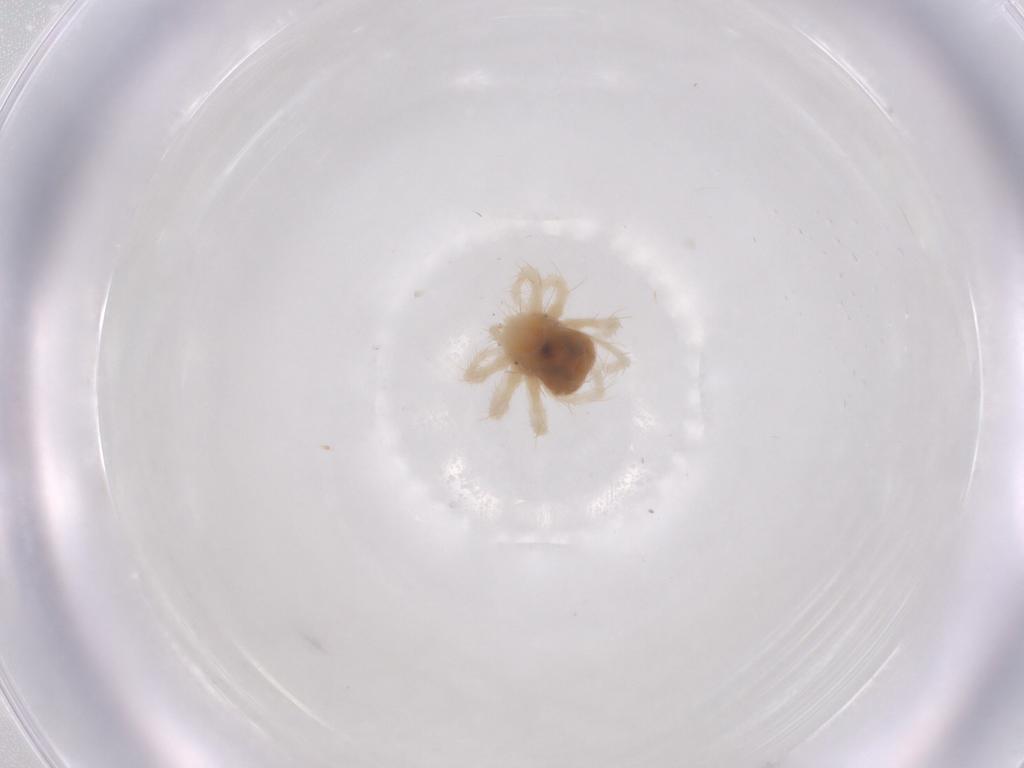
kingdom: Animalia
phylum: Arthropoda
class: Arachnida
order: Trombidiformes
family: Anystidae
